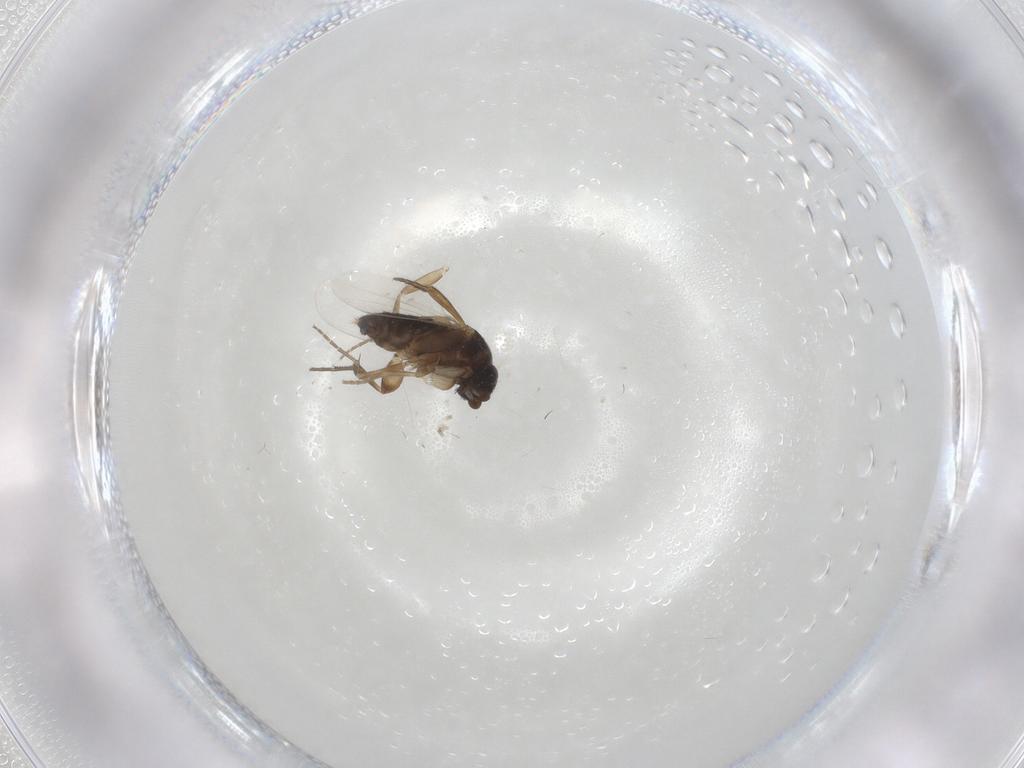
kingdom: Animalia
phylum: Arthropoda
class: Insecta
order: Diptera
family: Phoridae
